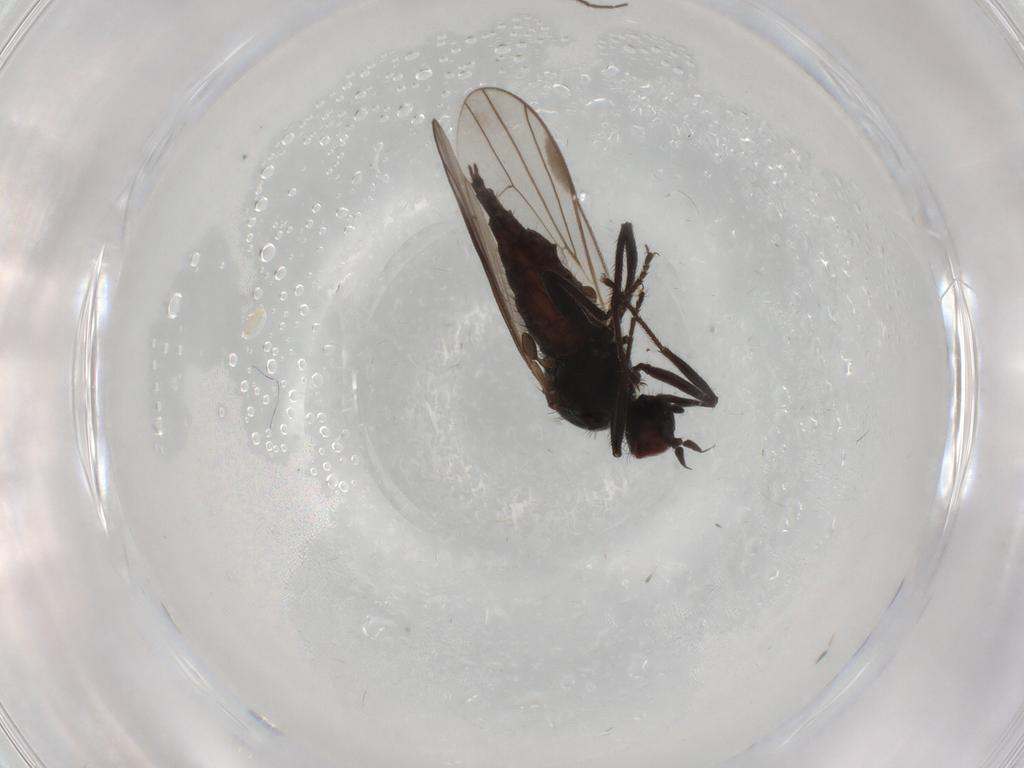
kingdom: Animalia
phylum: Arthropoda
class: Insecta
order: Diptera
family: Hybotidae
